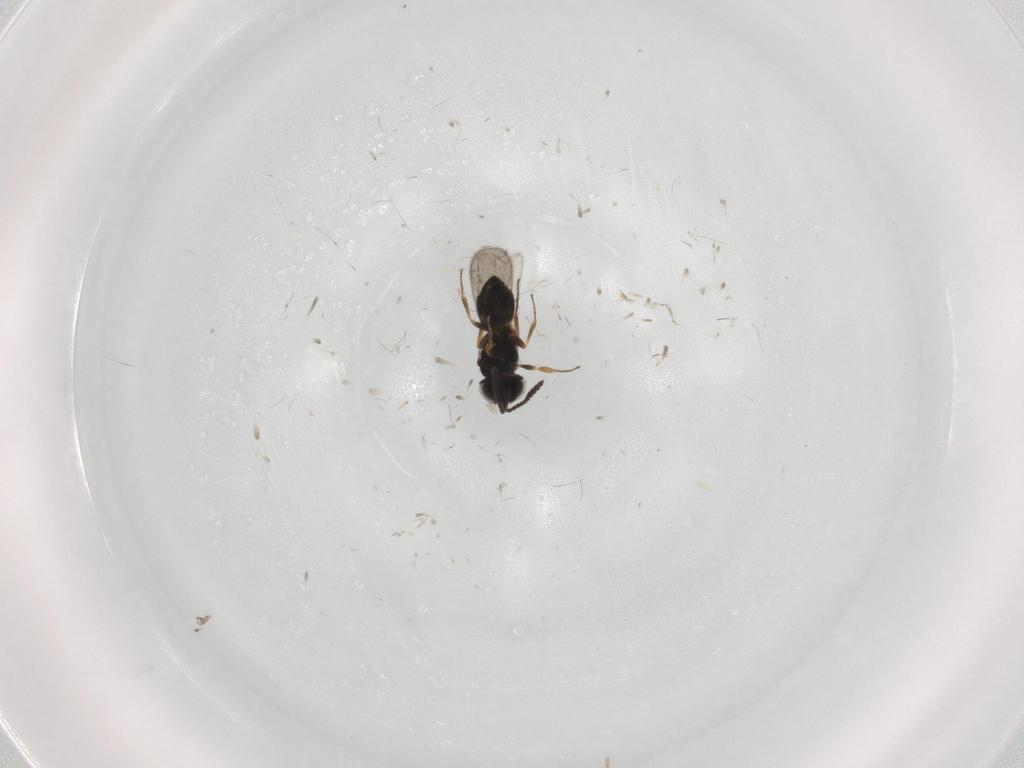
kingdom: Animalia
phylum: Arthropoda
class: Insecta
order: Hymenoptera
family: Scelionidae
